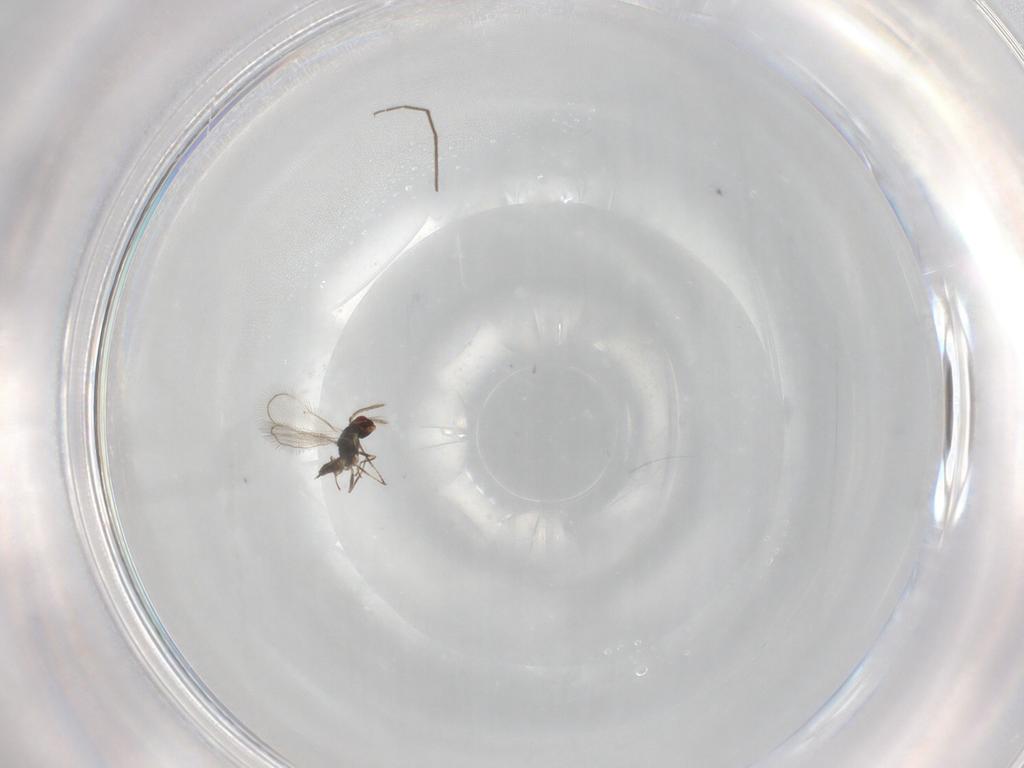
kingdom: Animalia
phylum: Arthropoda
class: Insecta
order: Hymenoptera
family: Eulophidae
